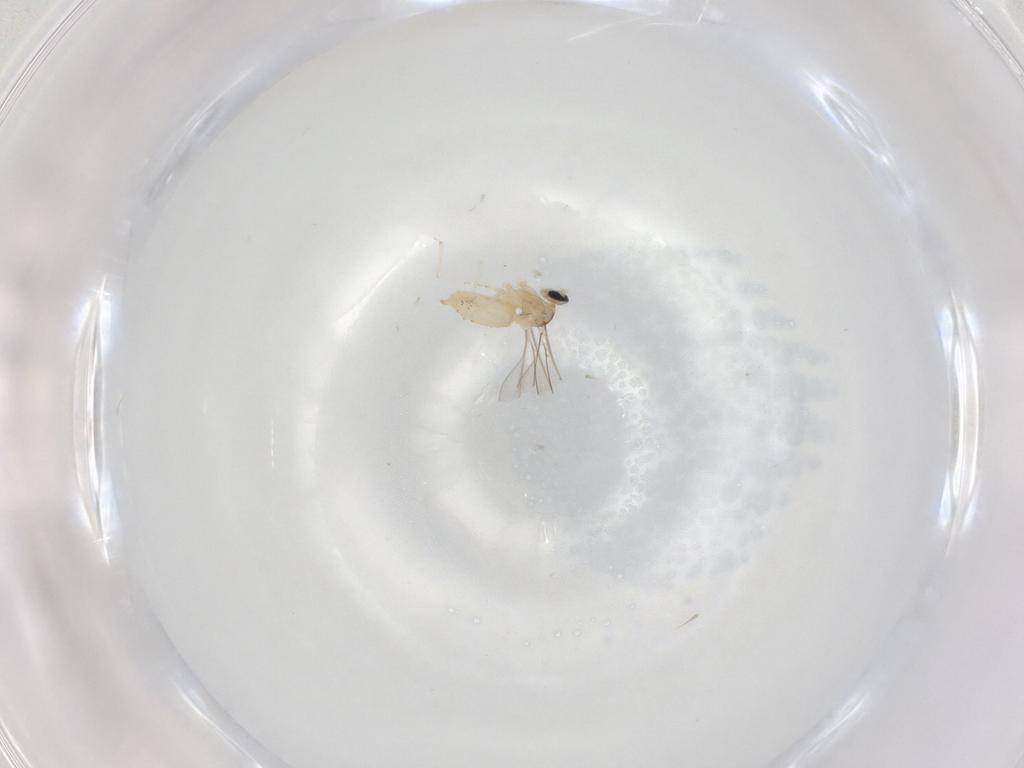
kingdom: Animalia
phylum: Arthropoda
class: Insecta
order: Diptera
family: Cecidomyiidae
